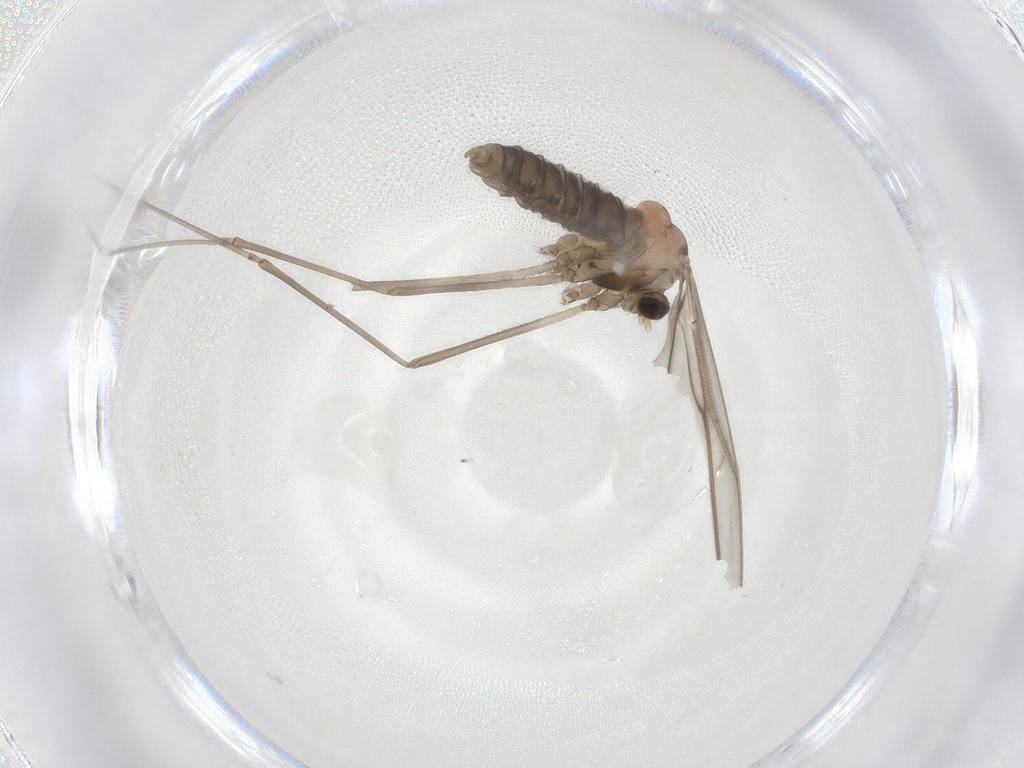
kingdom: Animalia
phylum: Arthropoda
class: Insecta
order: Diptera
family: Cecidomyiidae
